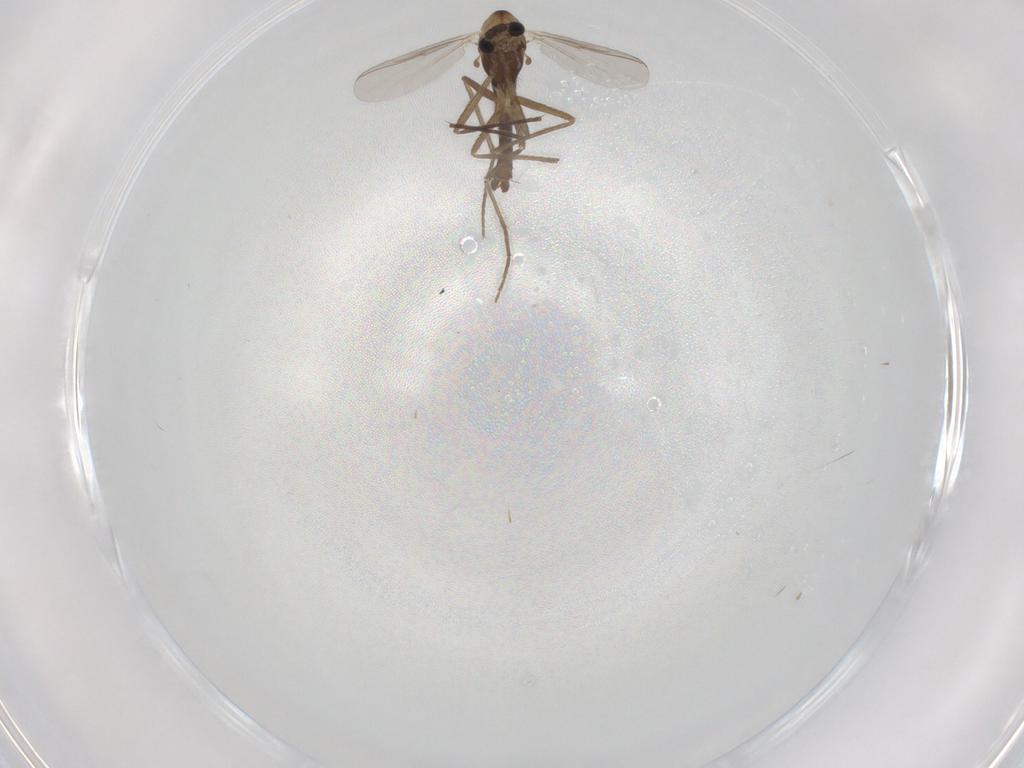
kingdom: Animalia
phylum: Arthropoda
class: Insecta
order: Diptera
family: Chironomidae
